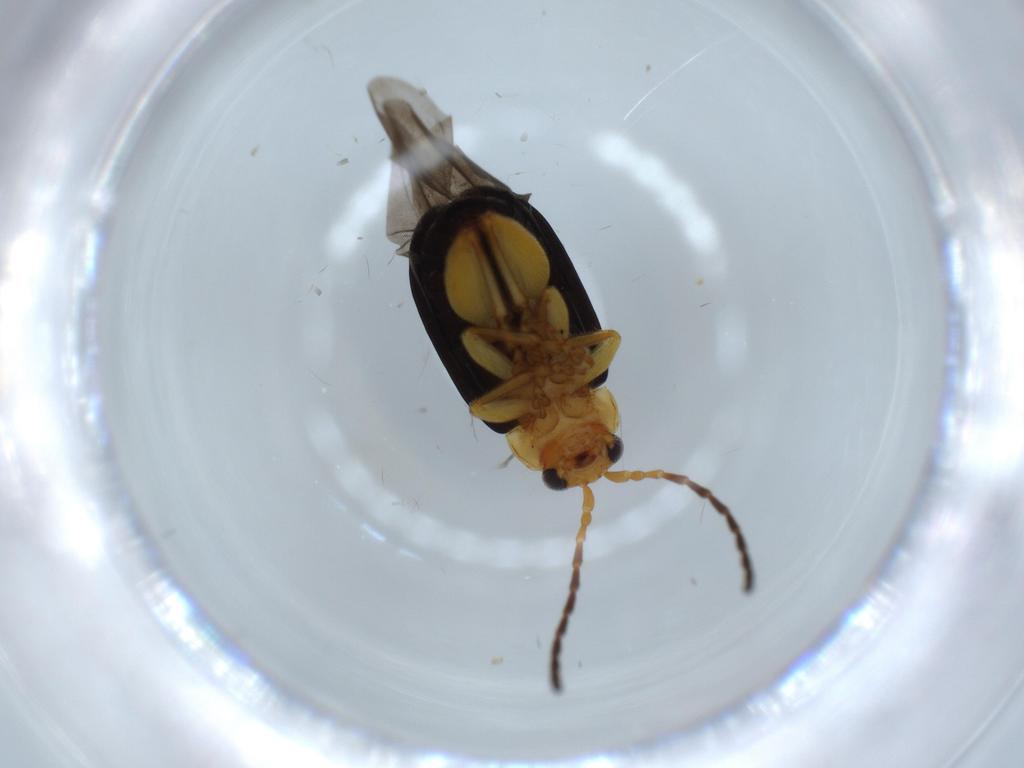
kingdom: Animalia
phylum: Arthropoda
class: Insecta
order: Coleoptera
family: Chrysomelidae
